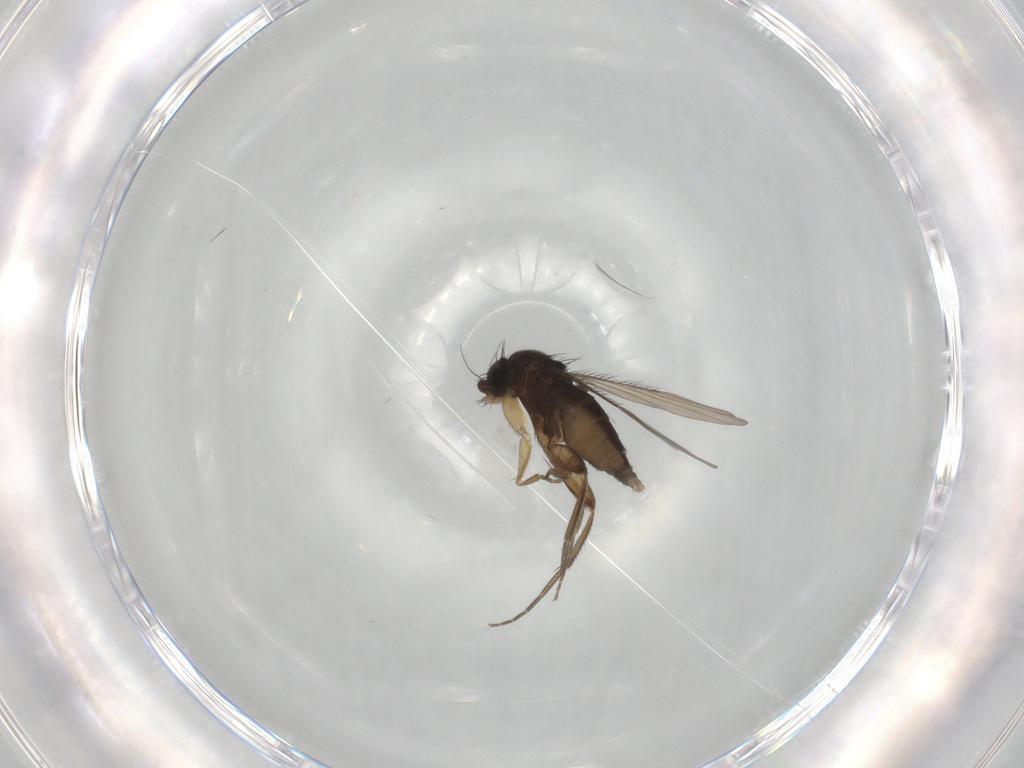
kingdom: Animalia
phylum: Arthropoda
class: Insecta
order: Diptera
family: Phoridae
